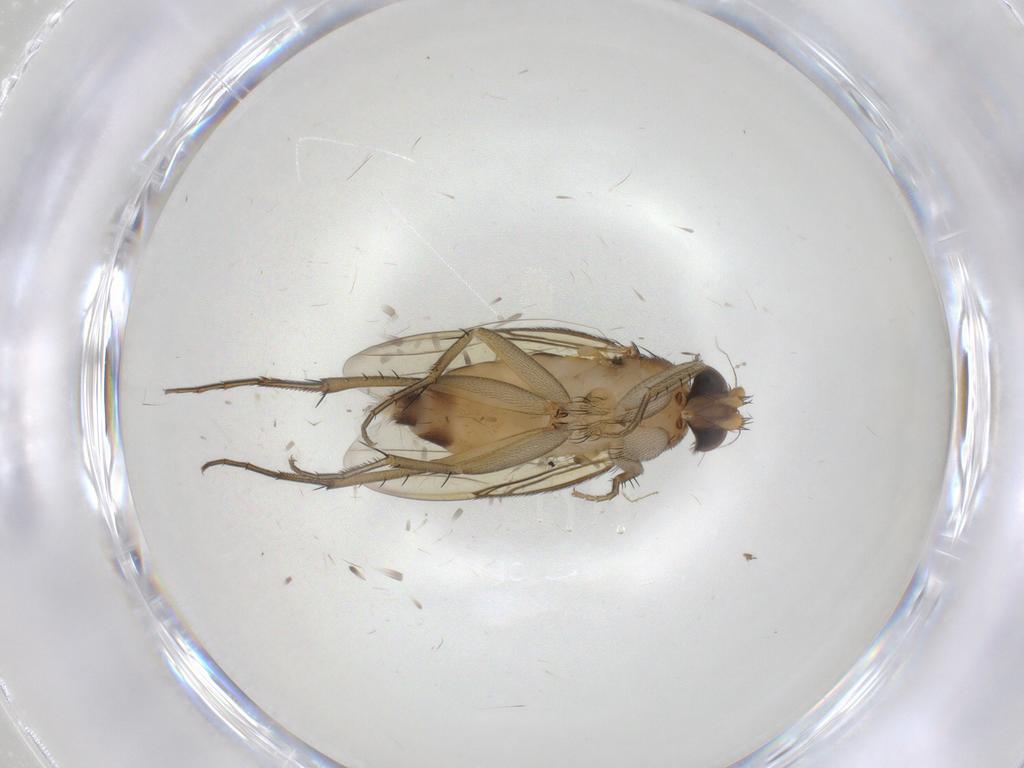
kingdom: Animalia
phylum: Arthropoda
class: Insecta
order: Diptera
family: Phoridae
